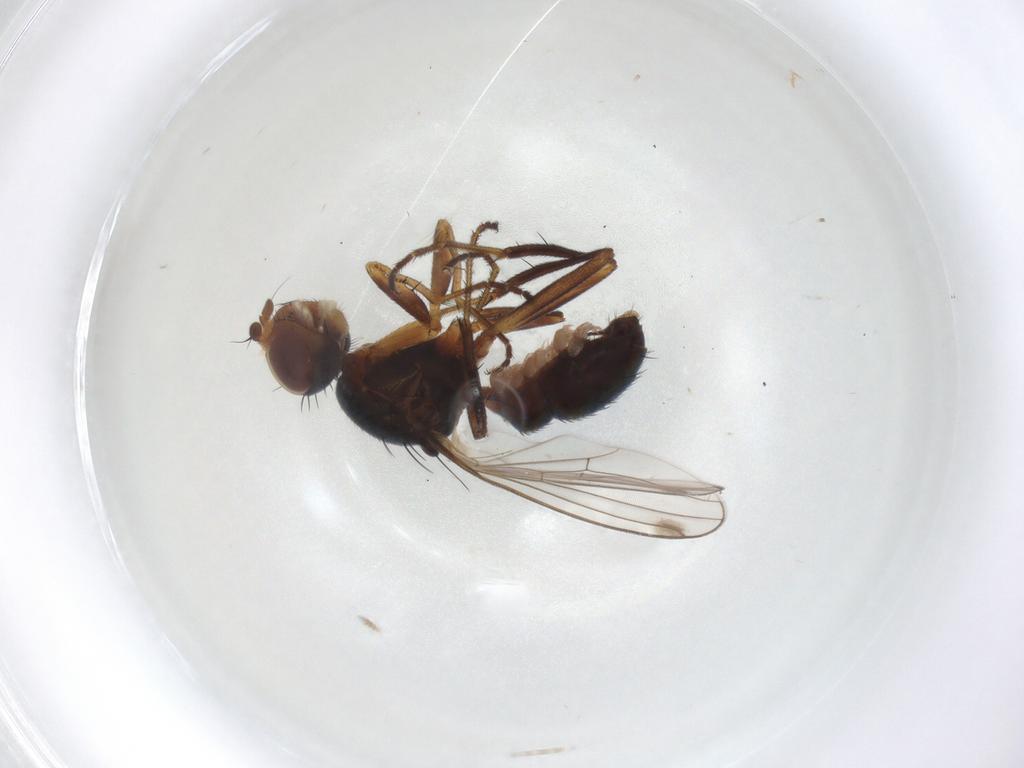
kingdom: Animalia
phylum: Arthropoda
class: Insecta
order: Diptera
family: Sepsidae
